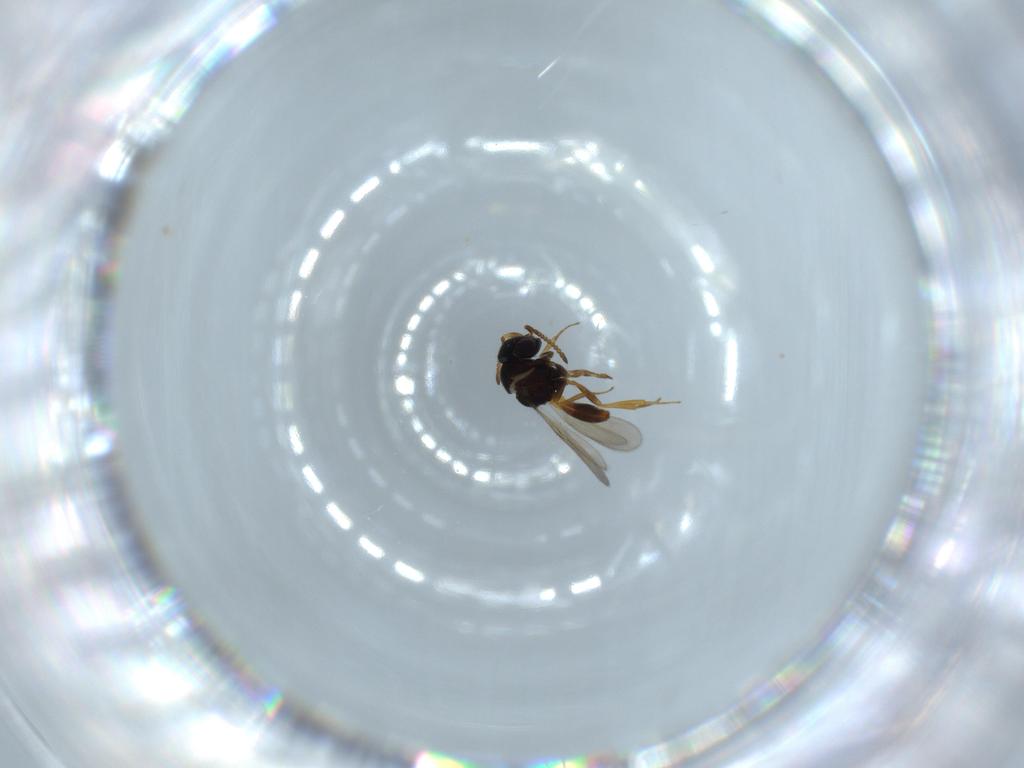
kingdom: Animalia
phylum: Arthropoda
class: Insecta
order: Hymenoptera
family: Scelionidae
